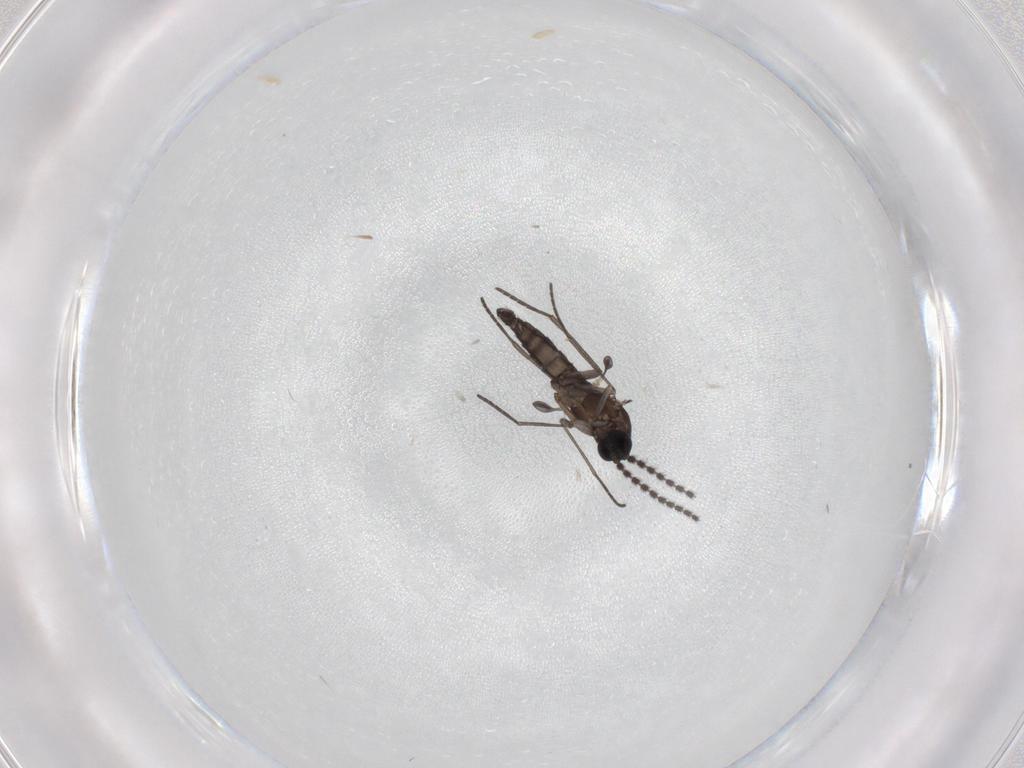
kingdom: Animalia
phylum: Arthropoda
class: Insecta
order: Diptera
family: Sciaridae
